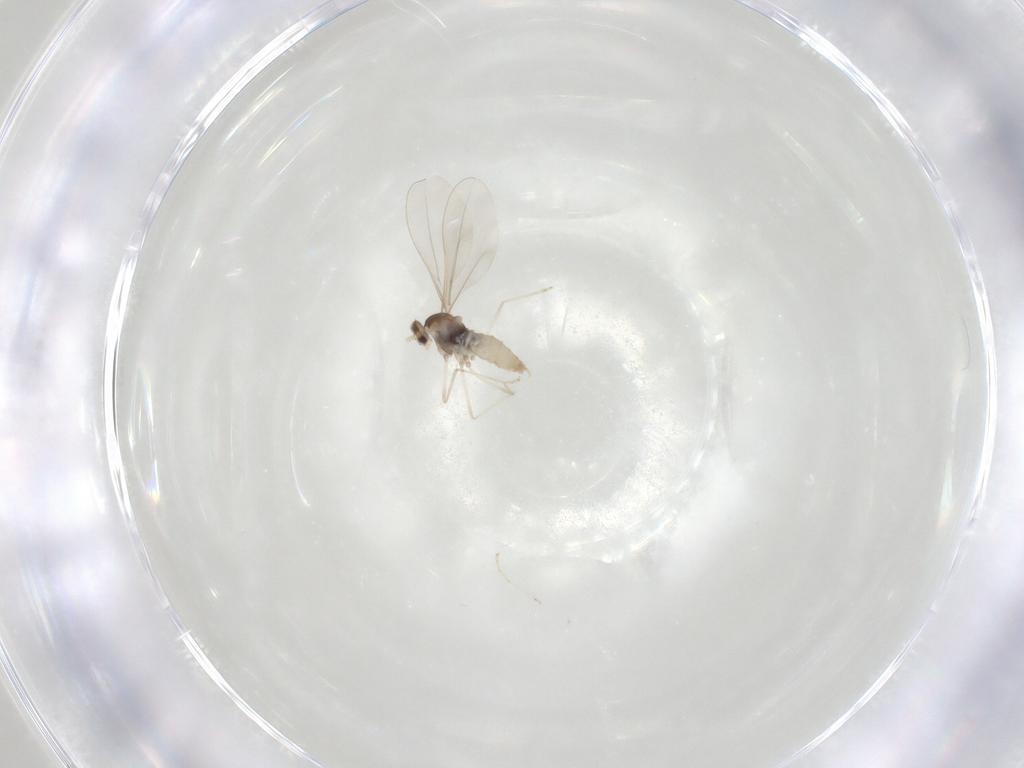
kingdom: Animalia
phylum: Arthropoda
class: Insecta
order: Diptera
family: Cecidomyiidae
